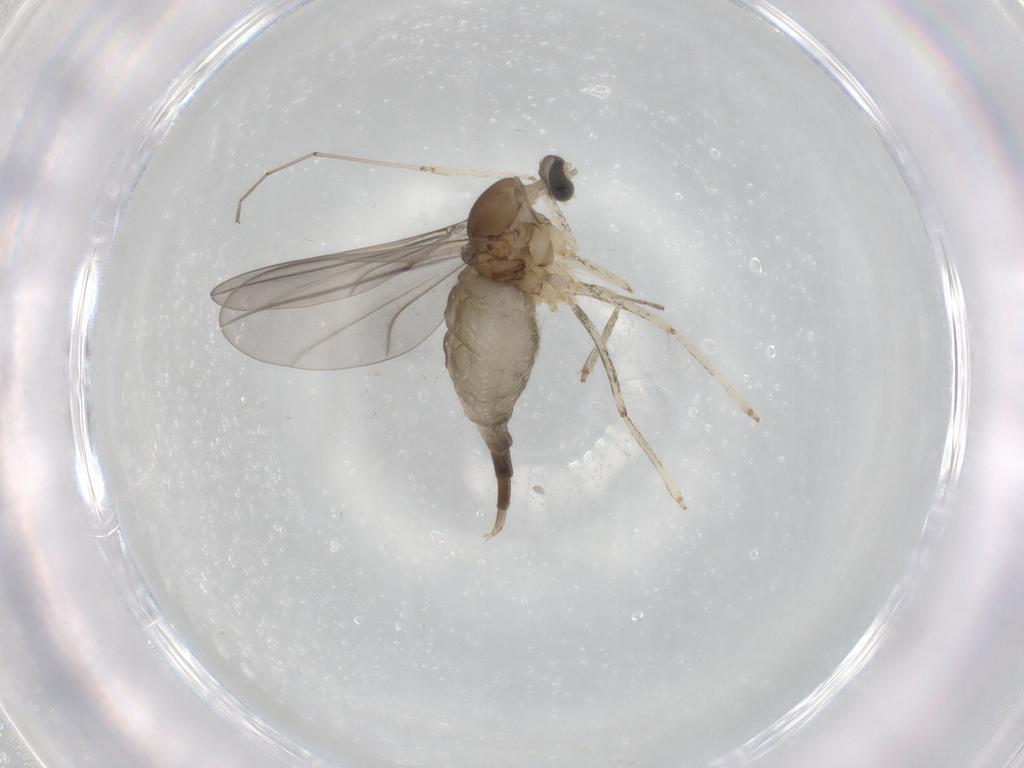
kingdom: Animalia
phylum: Arthropoda
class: Insecta
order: Diptera
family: Cecidomyiidae
